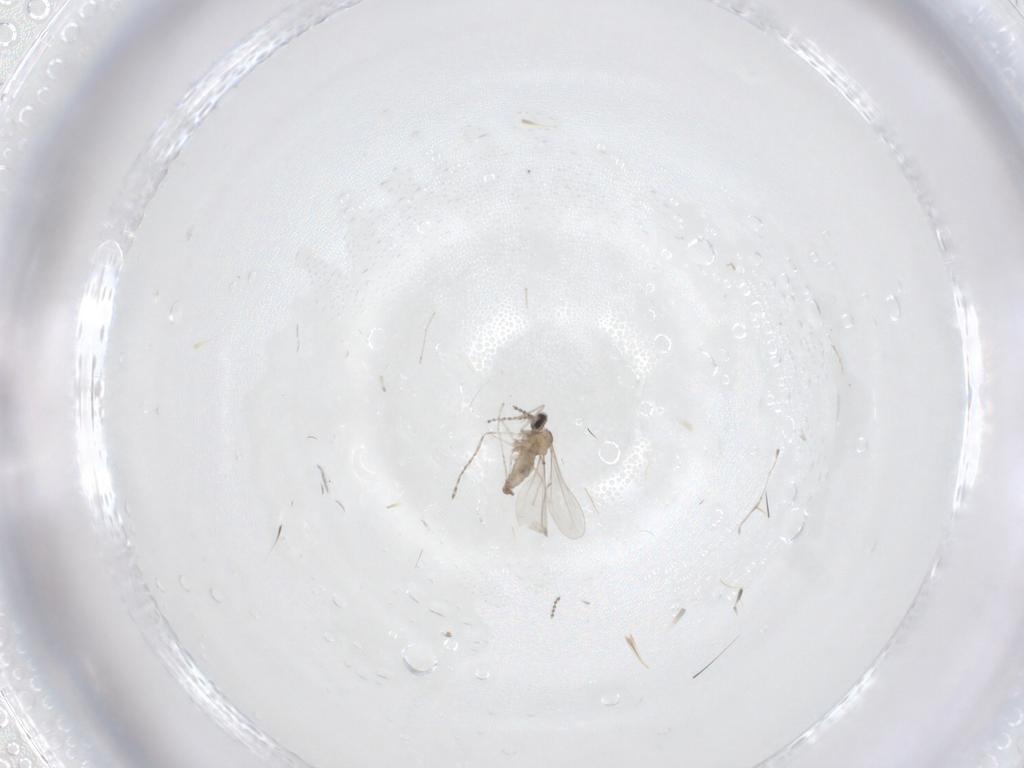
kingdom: Animalia
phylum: Arthropoda
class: Insecta
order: Diptera
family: Cecidomyiidae
